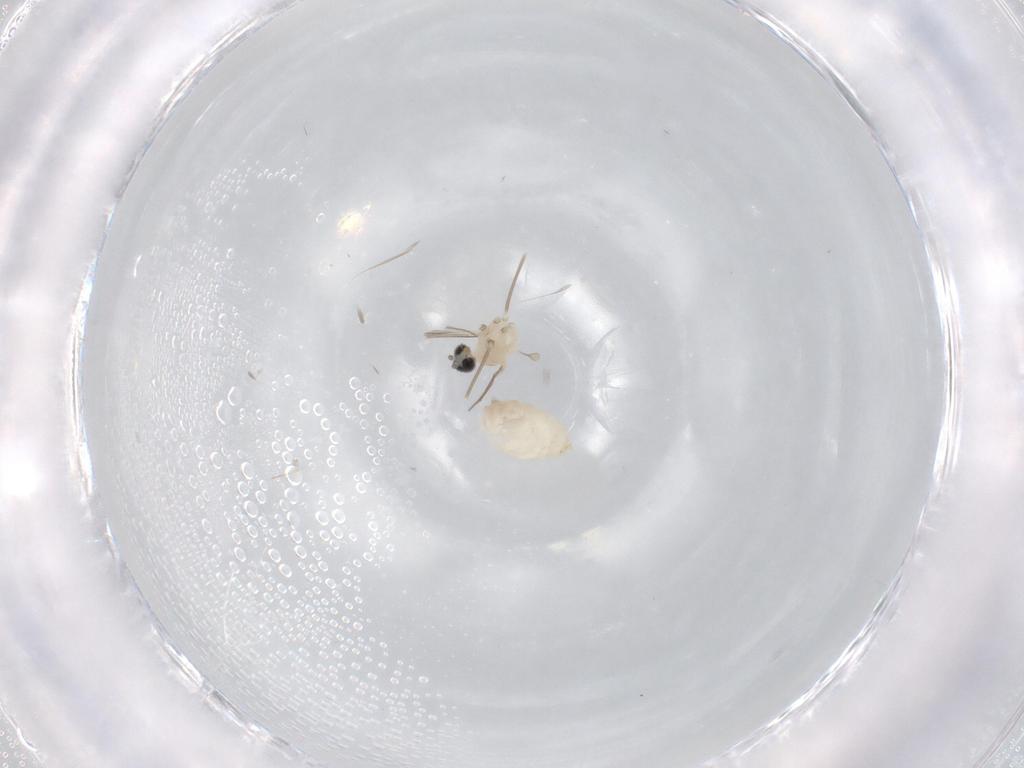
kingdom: Animalia
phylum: Arthropoda
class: Insecta
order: Diptera
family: Cecidomyiidae
